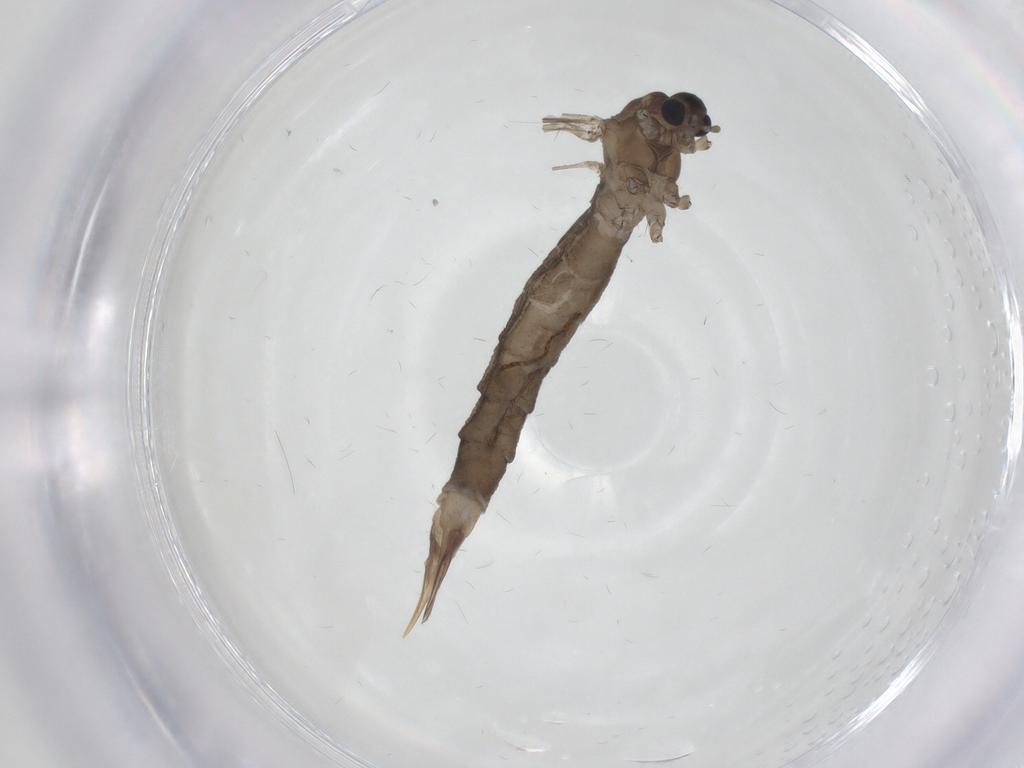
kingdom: Animalia
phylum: Arthropoda
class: Insecta
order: Diptera
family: Limoniidae
